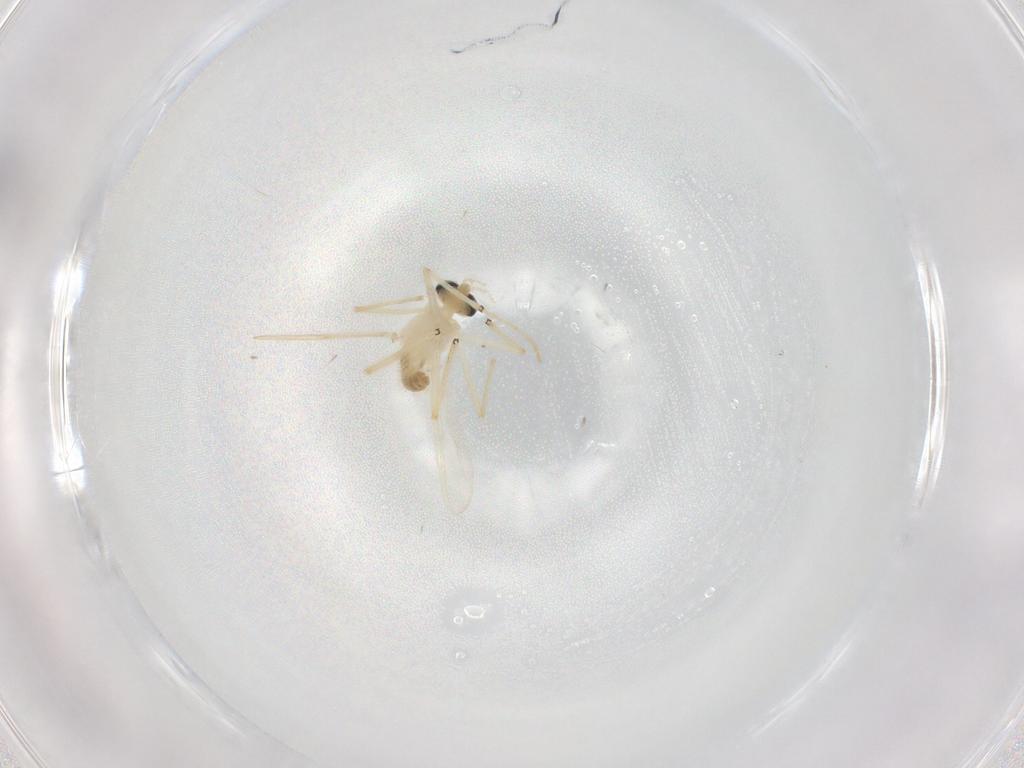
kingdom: Animalia
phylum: Arthropoda
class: Insecta
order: Diptera
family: Chironomidae
